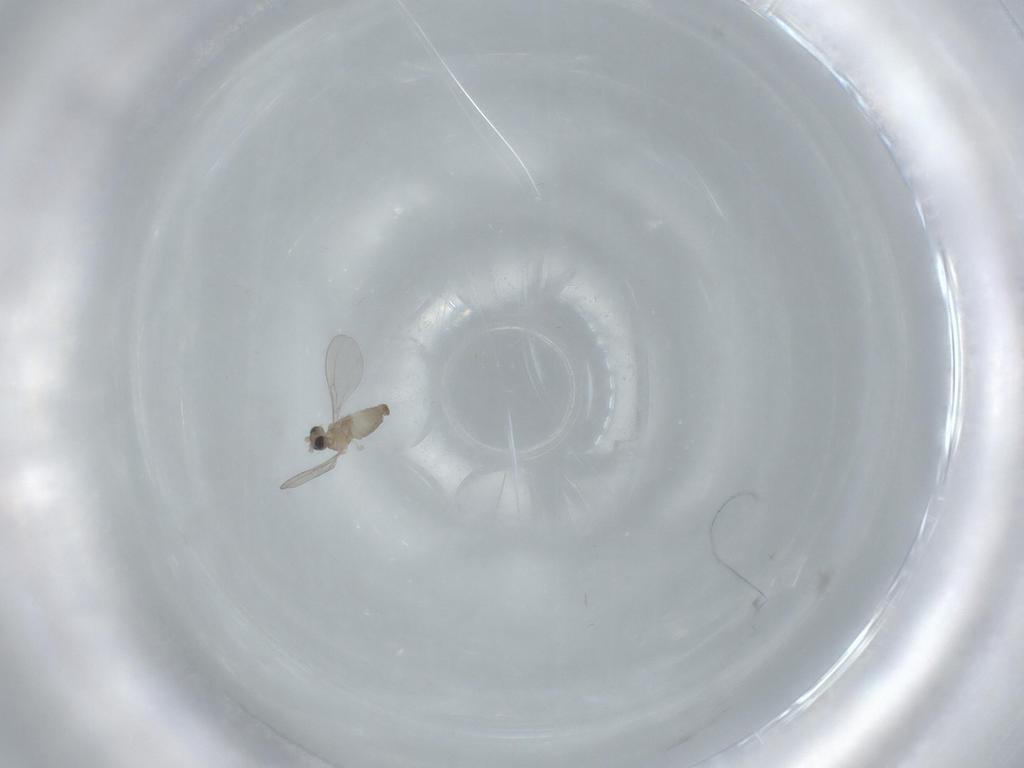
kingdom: Animalia
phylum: Arthropoda
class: Insecta
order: Diptera
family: Cecidomyiidae
